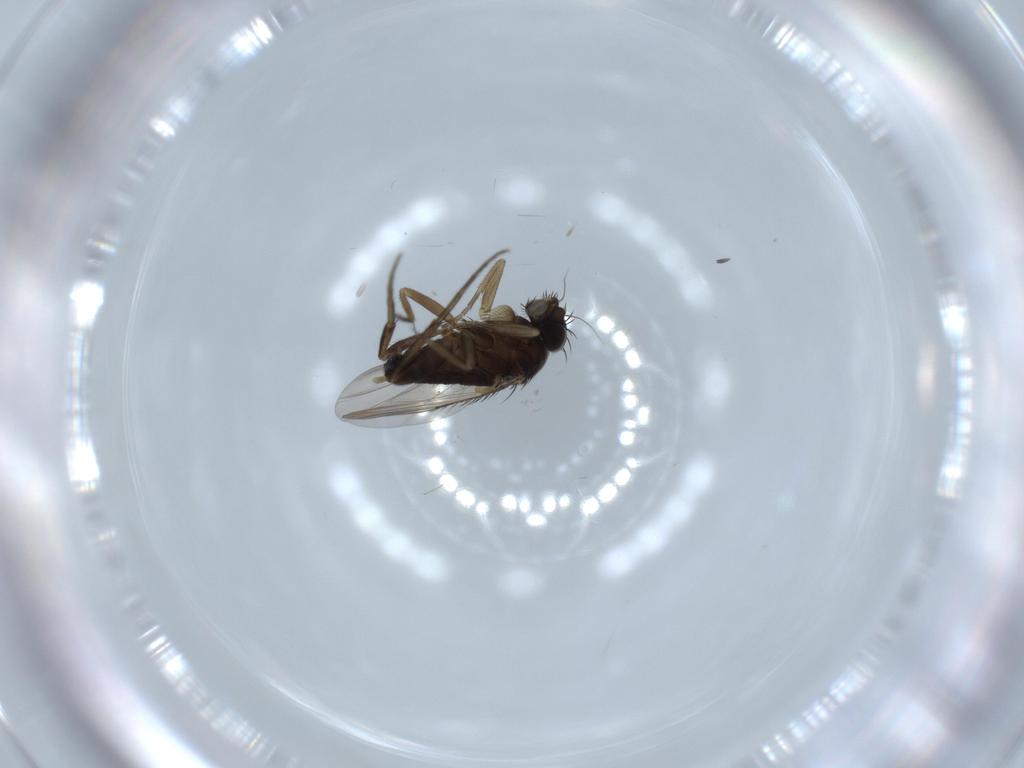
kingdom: Animalia
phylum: Arthropoda
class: Insecta
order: Diptera
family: Phoridae
